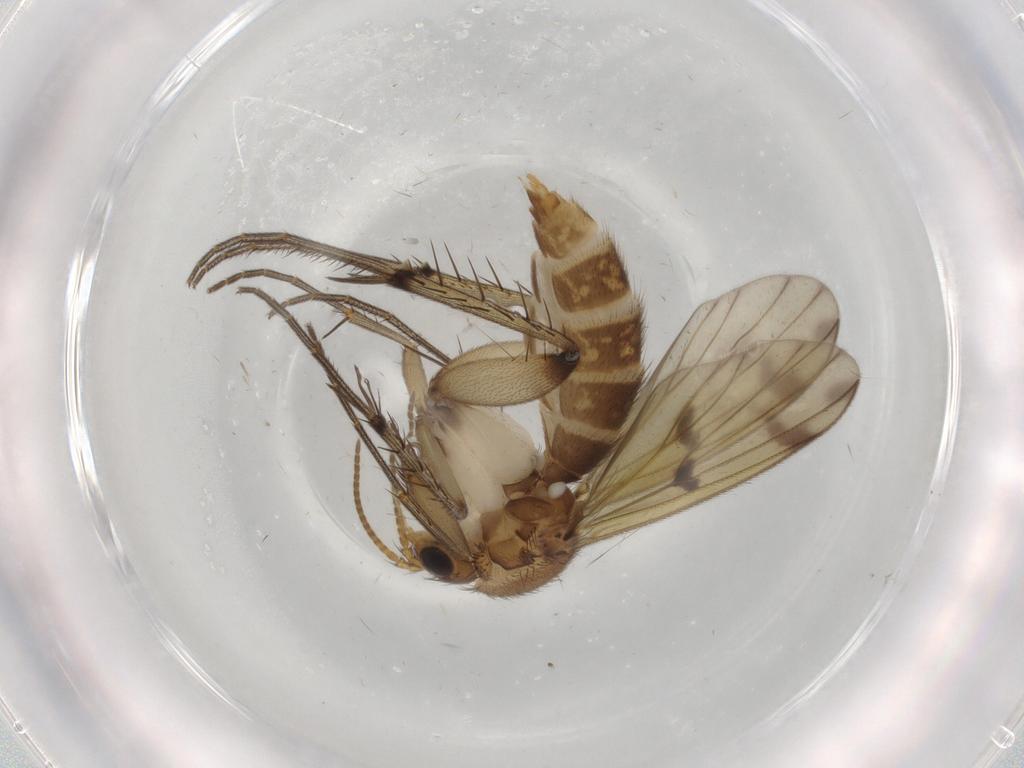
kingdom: Animalia
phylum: Arthropoda
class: Insecta
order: Diptera
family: Mycetophilidae
